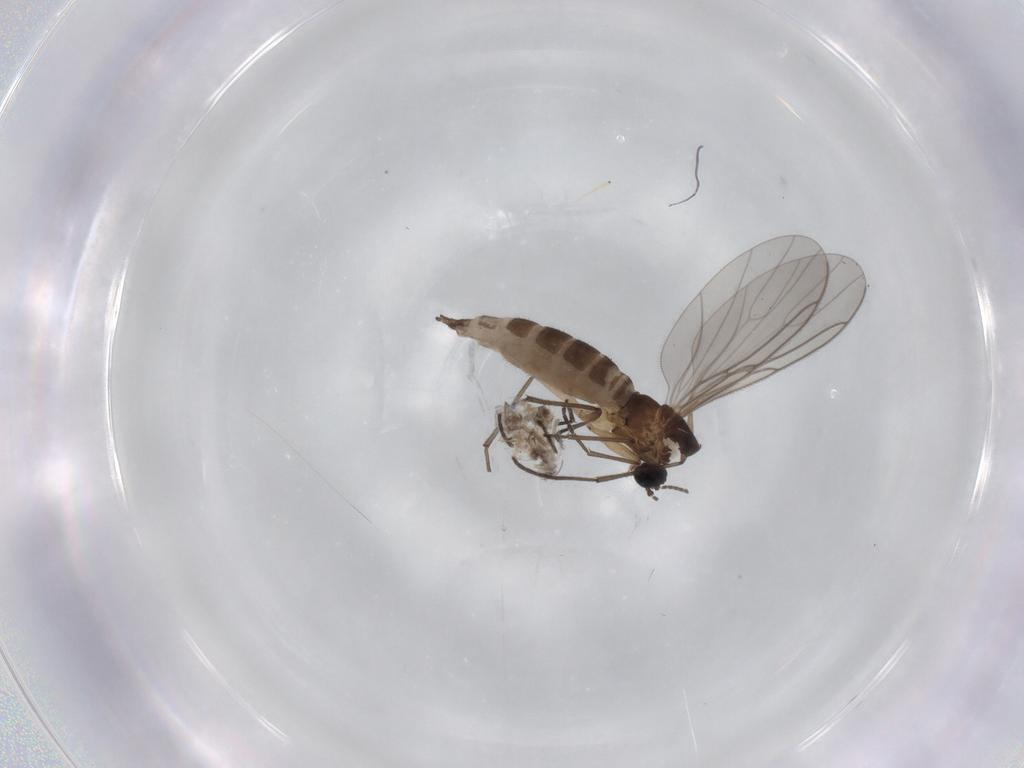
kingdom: Animalia
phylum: Arthropoda
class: Insecta
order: Diptera
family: Sciaridae
